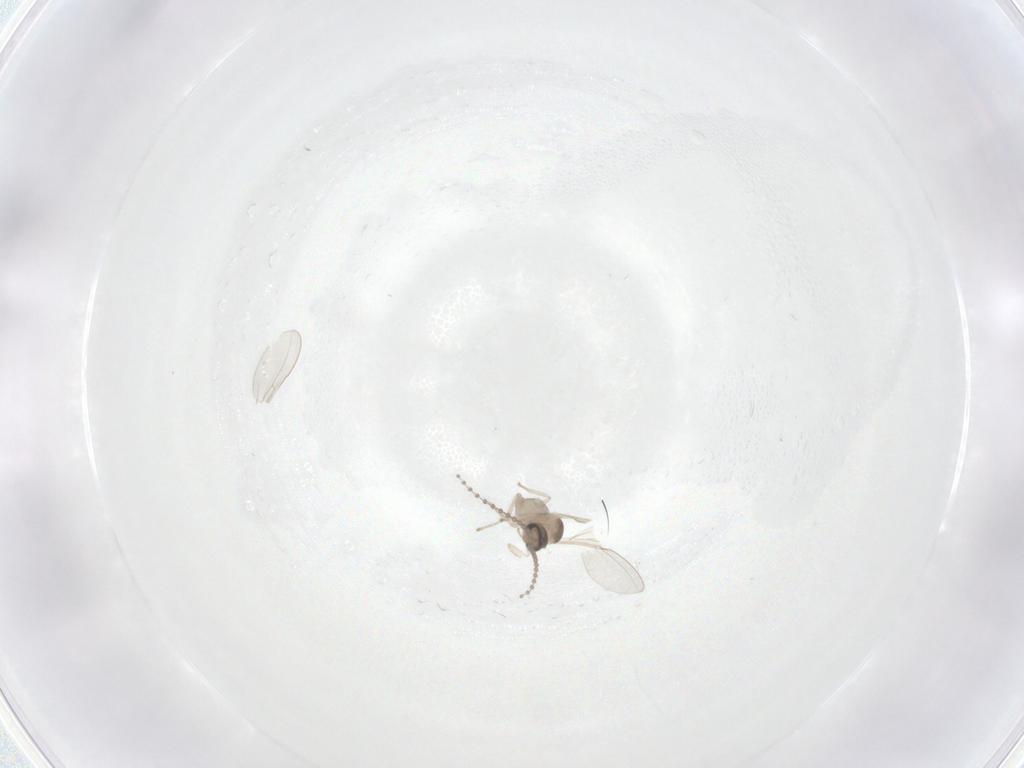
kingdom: Animalia
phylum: Arthropoda
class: Insecta
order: Diptera
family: Cecidomyiidae
